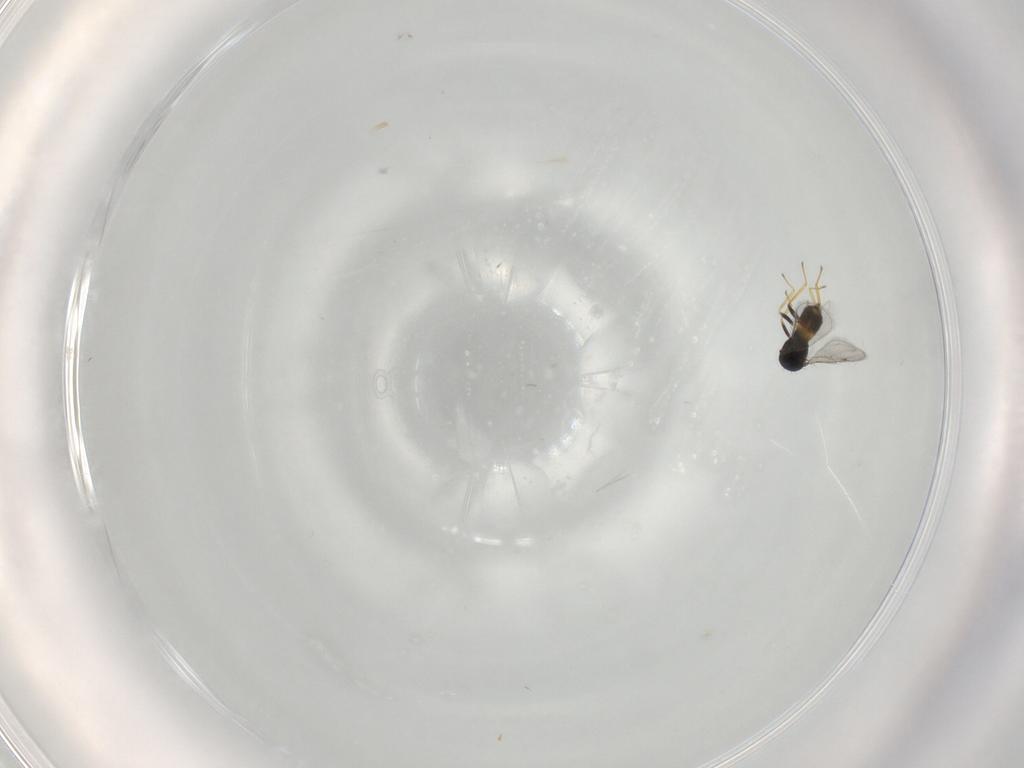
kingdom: Animalia
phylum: Arthropoda
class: Insecta
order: Hymenoptera
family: Eulophidae
